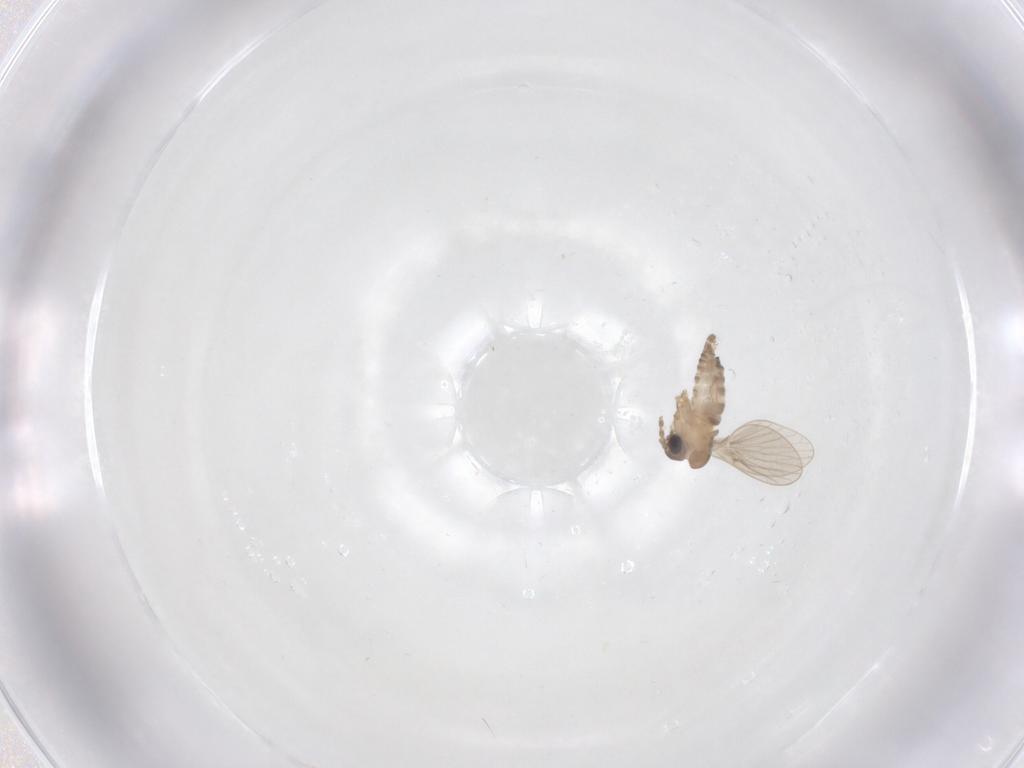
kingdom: Animalia
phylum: Arthropoda
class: Insecta
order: Diptera
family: Psychodidae
